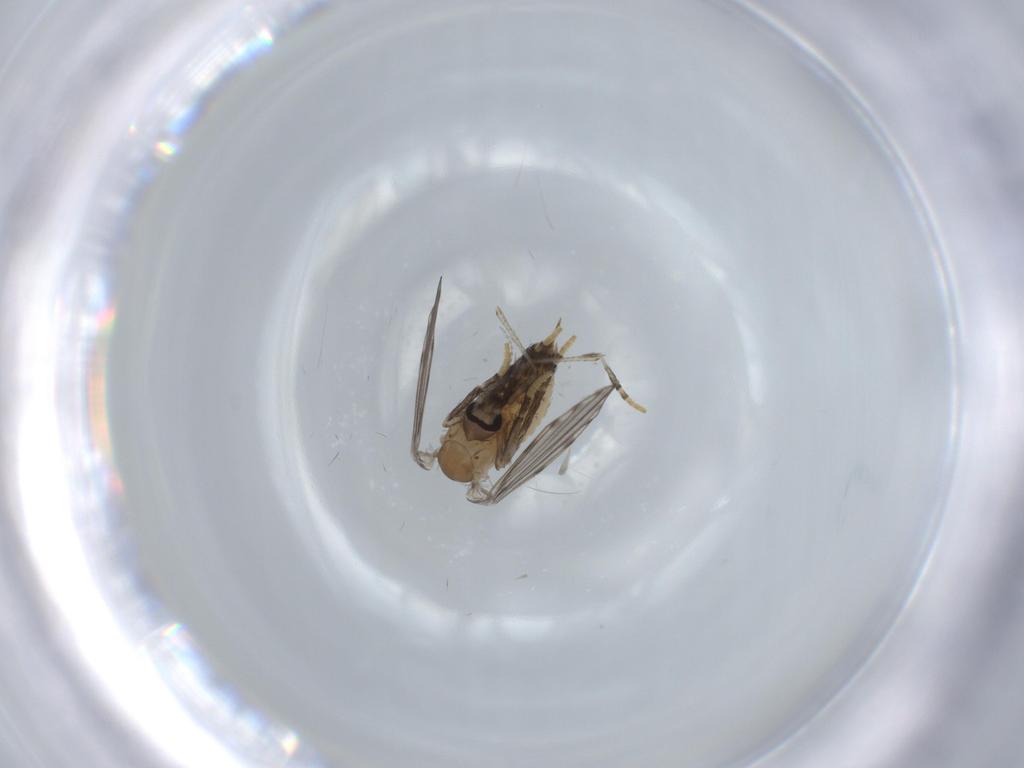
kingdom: Animalia
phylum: Arthropoda
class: Insecta
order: Diptera
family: Psychodidae
